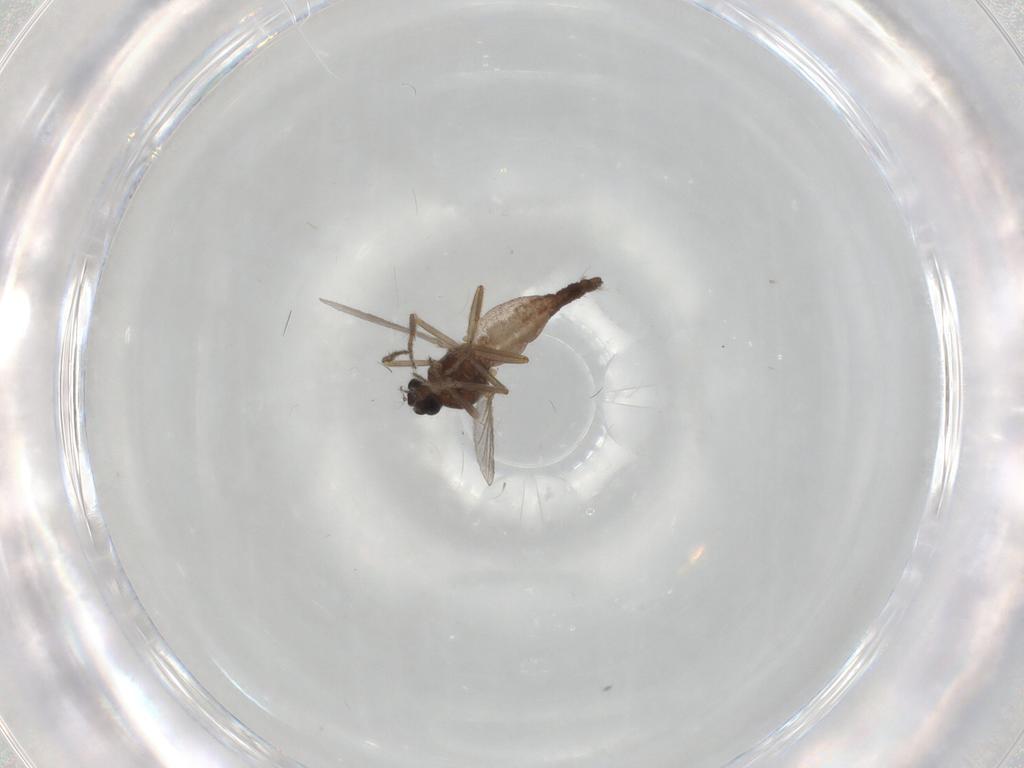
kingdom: Animalia
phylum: Arthropoda
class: Insecta
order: Diptera
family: Ceratopogonidae
